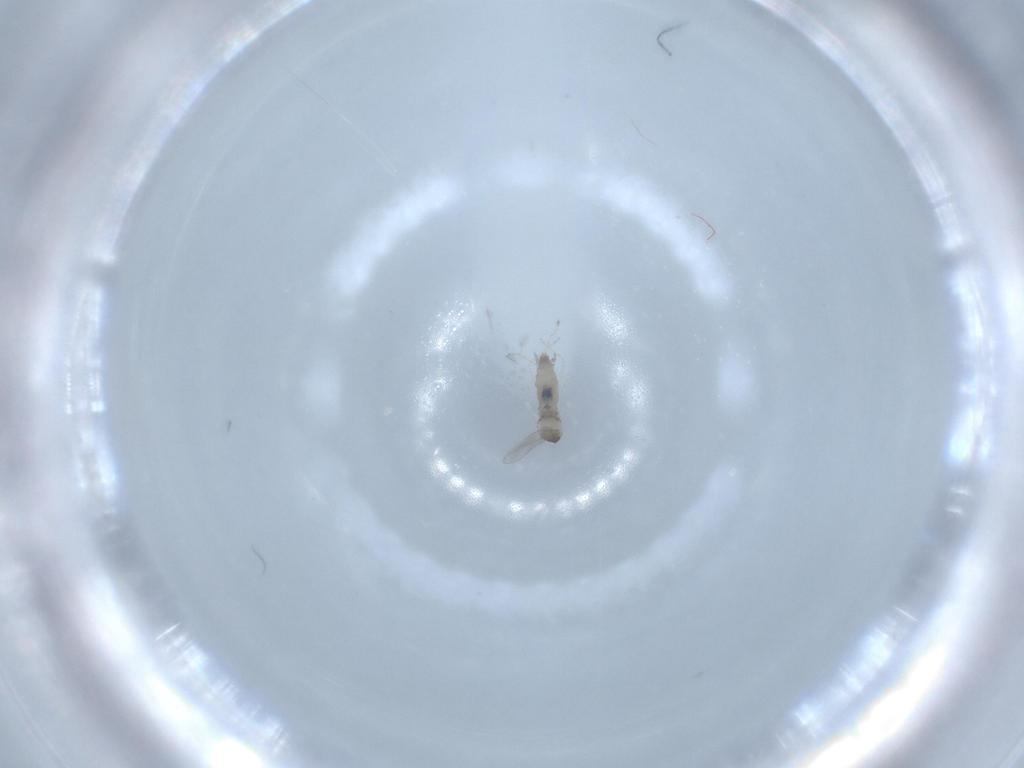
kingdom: Animalia
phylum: Arthropoda
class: Insecta
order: Diptera
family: Cecidomyiidae
